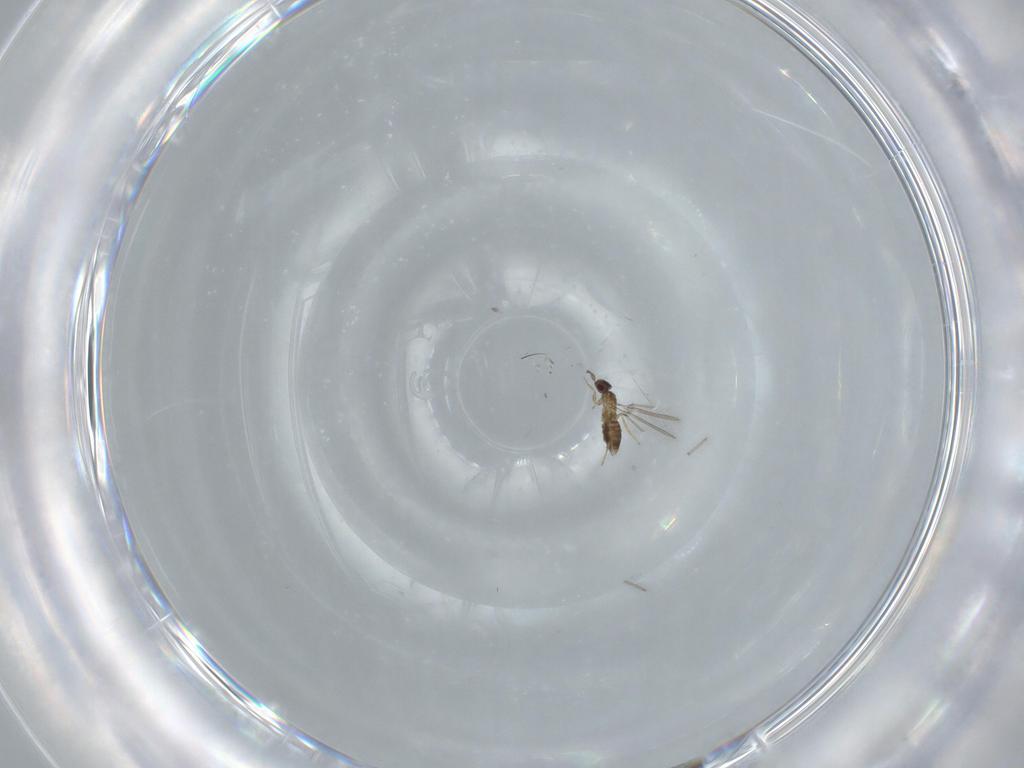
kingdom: Animalia
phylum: Arthropoda
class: Insecta
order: Hymenoptera
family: Mymaridae
